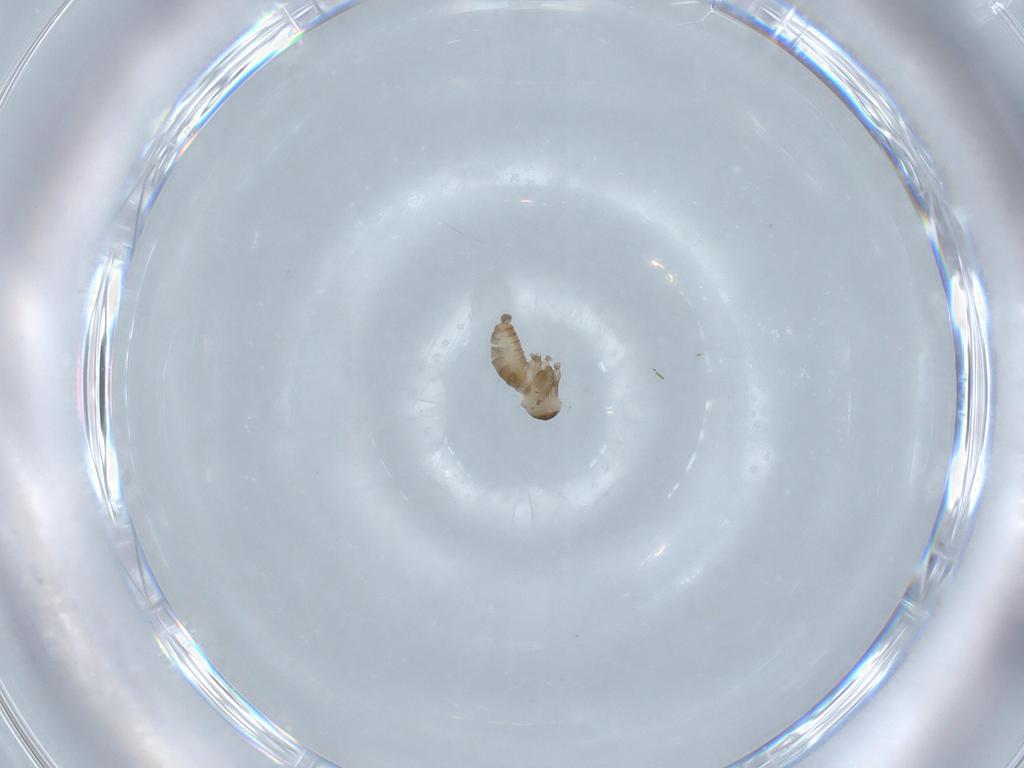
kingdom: Animalia
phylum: Arthropoda
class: Insecta
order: Diptera
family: Cecidomyiidae
